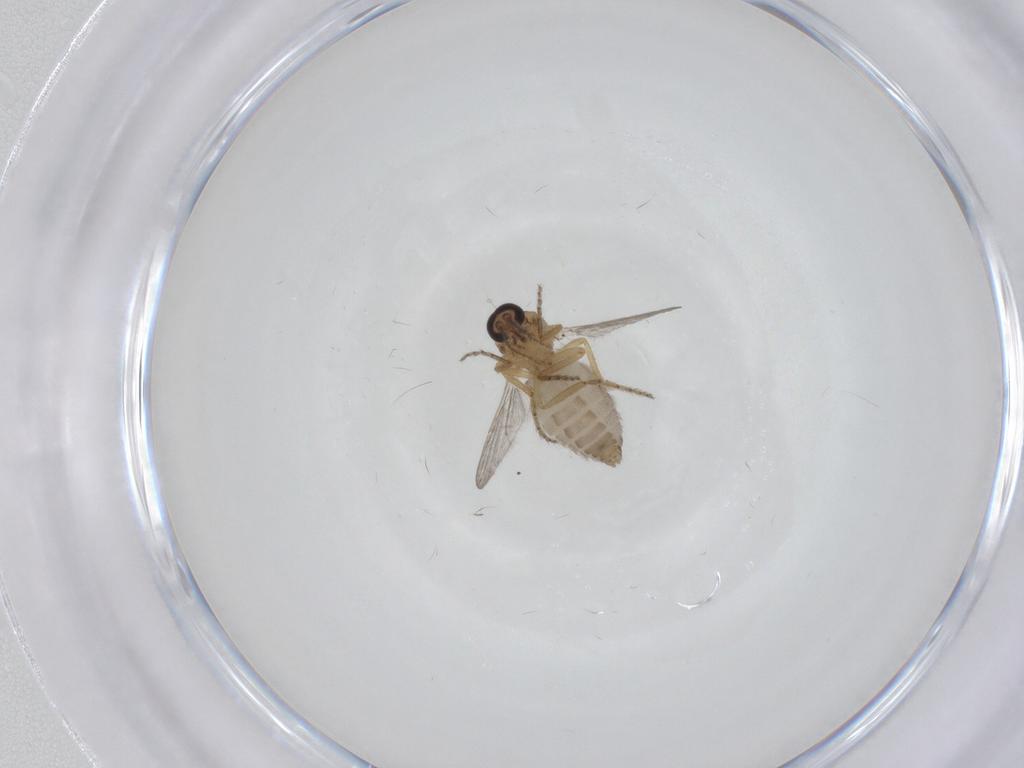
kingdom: Animalia
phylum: Arthropoda
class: Insecta
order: Diptera
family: Ceratopogonidae
